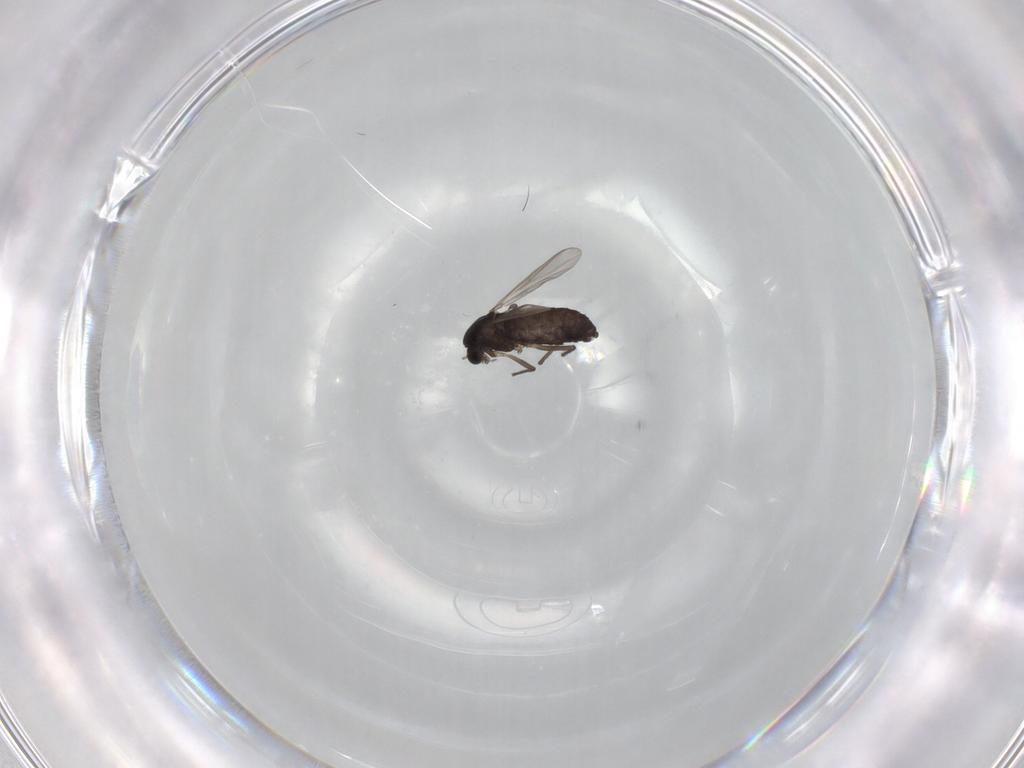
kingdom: Animalia
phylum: Arthropoda
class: Insecta
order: Diptera
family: Chironomidae
